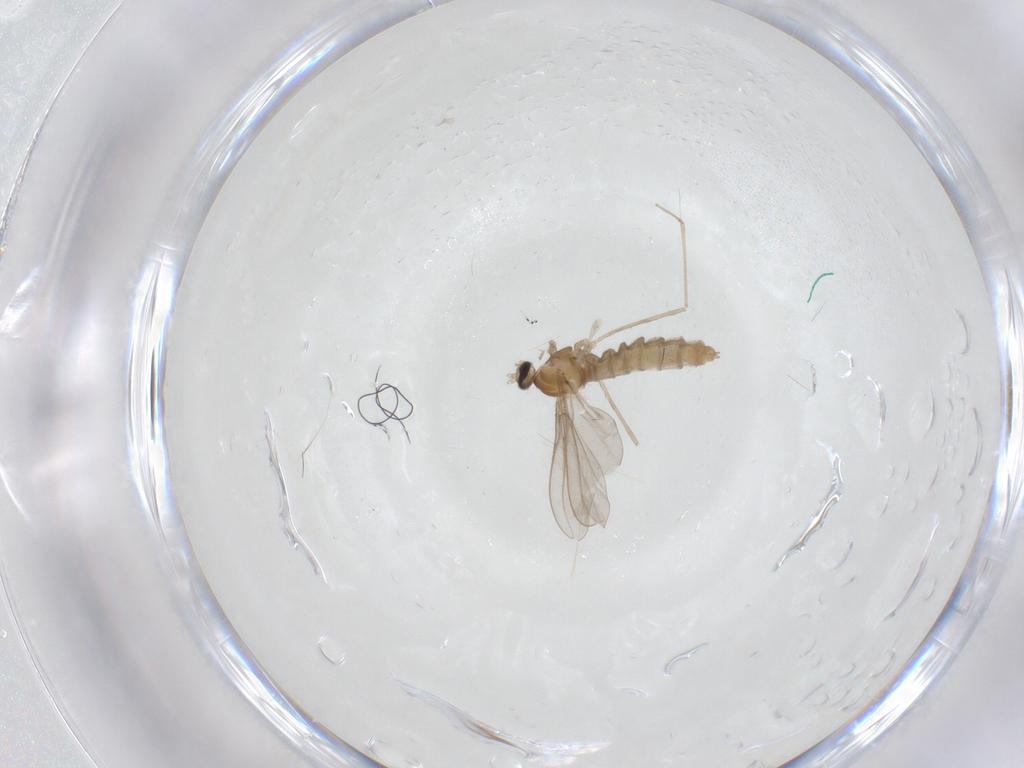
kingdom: Animalia
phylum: Arthropoda
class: Insecta
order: Diptera
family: Cecidomyiidae
